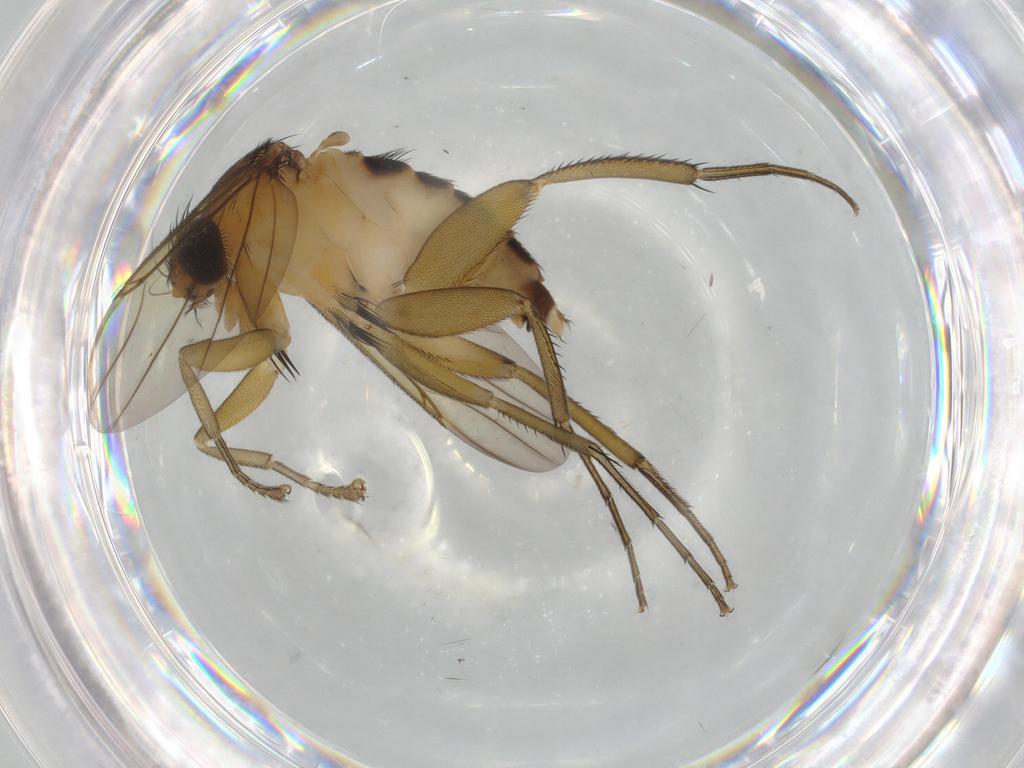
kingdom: Animalia
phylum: Arthropoda
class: Insecta
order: Diptera
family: Phoridae
